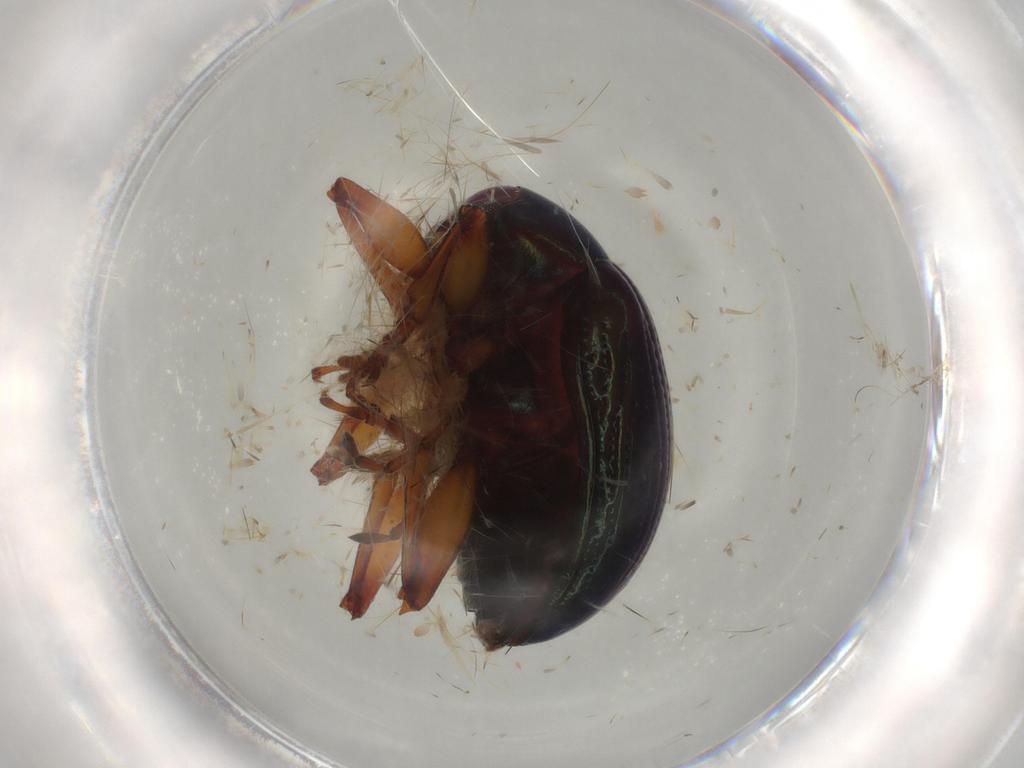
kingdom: Animalia
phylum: Arthropoda
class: Insecta
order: Coleoptera
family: Chrysomelidae
